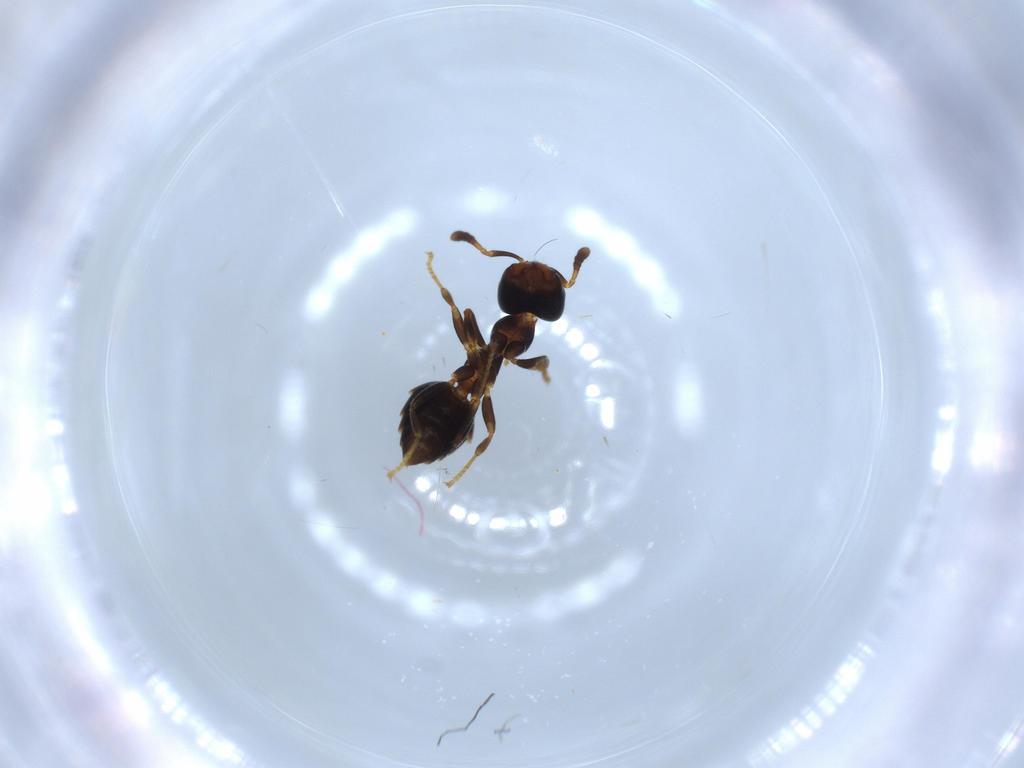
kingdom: Animalia
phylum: Arthropoda
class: Insecta
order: Hymenoptera
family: Formicidae
